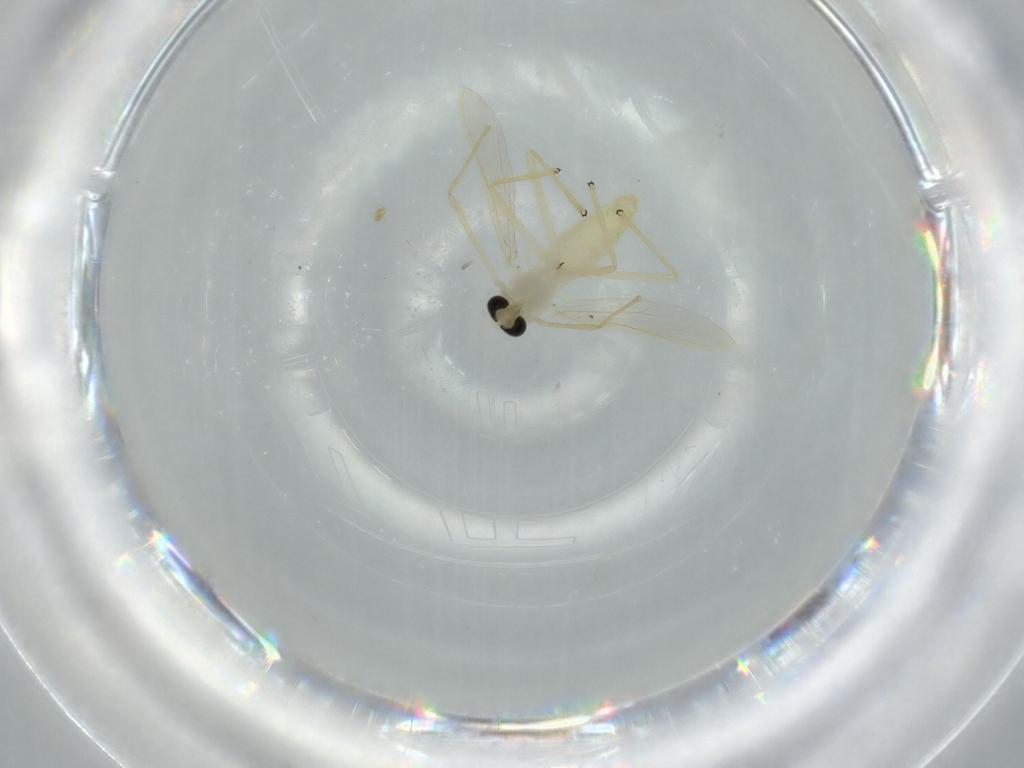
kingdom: Animalia
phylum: Arthropoda
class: Insecta
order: Diptera
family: Chironomidae
